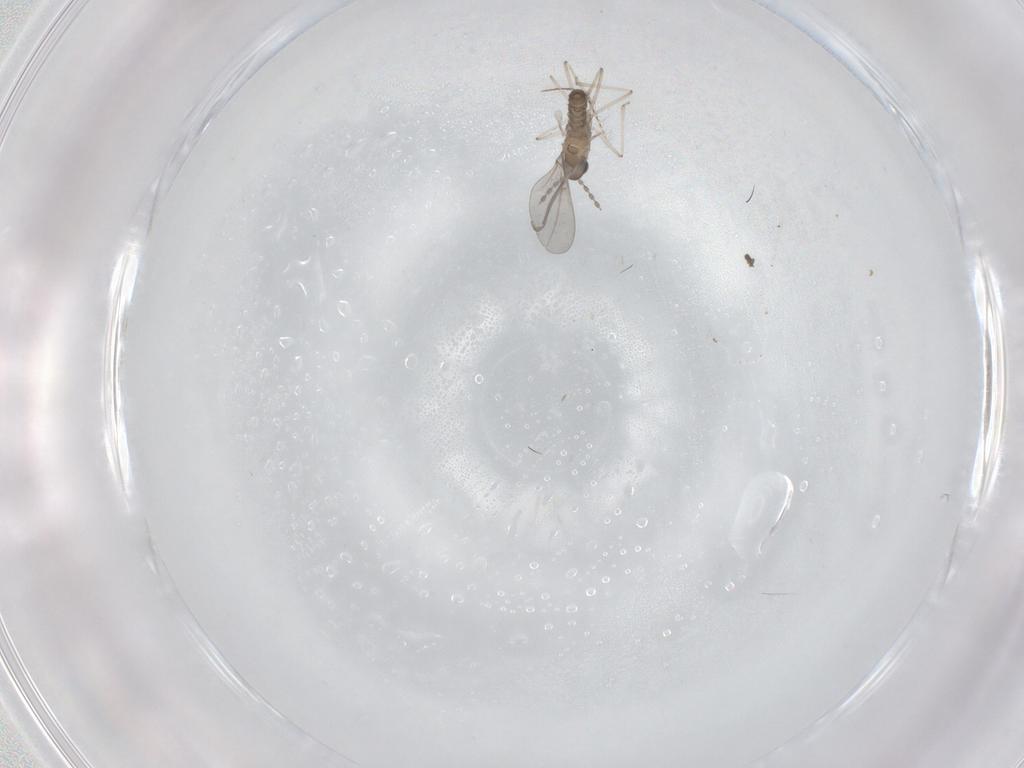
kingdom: Animalia
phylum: Arthropoda
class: Insecta
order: Diptera
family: Cecidomyiidae
